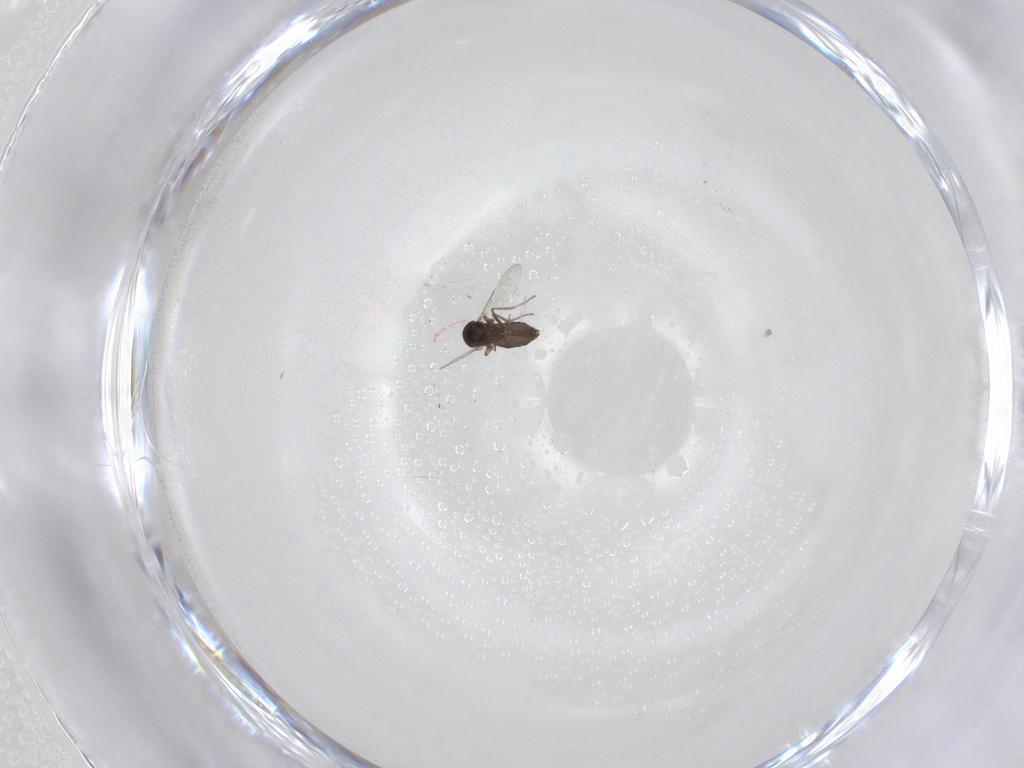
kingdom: Animalia
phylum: Arthropoda
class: Insecta
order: Diptera
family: Ceratopogonidae
